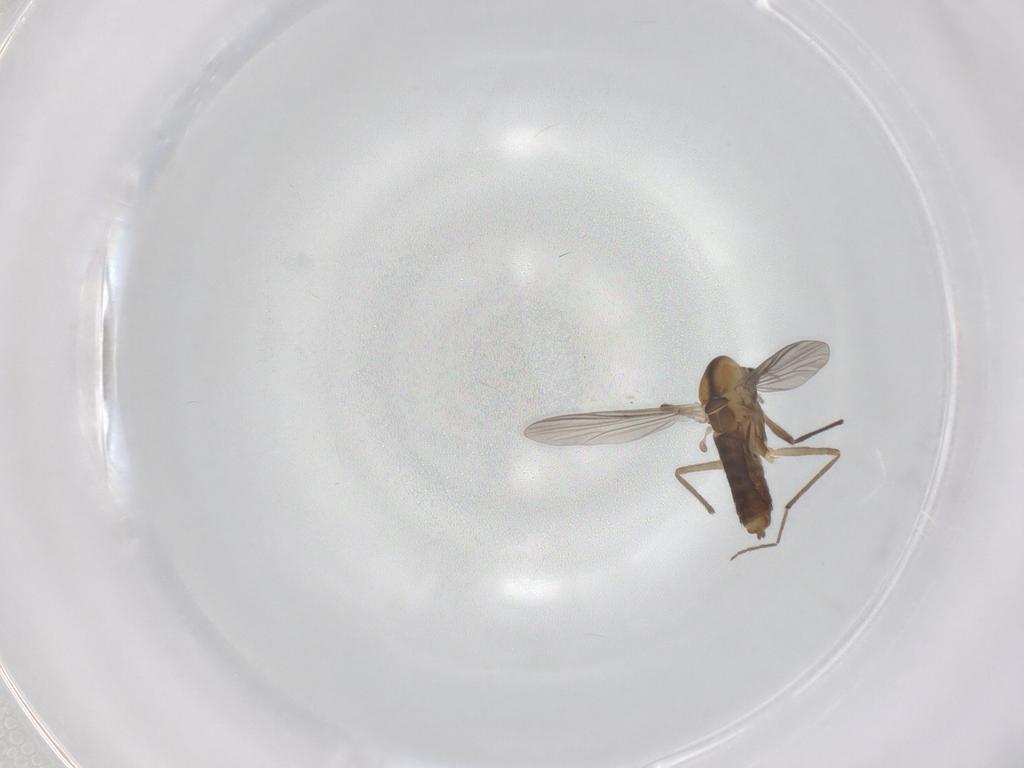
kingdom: Animalia
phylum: Arthropoda
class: Insecta
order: Diptera
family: Chironomidae
